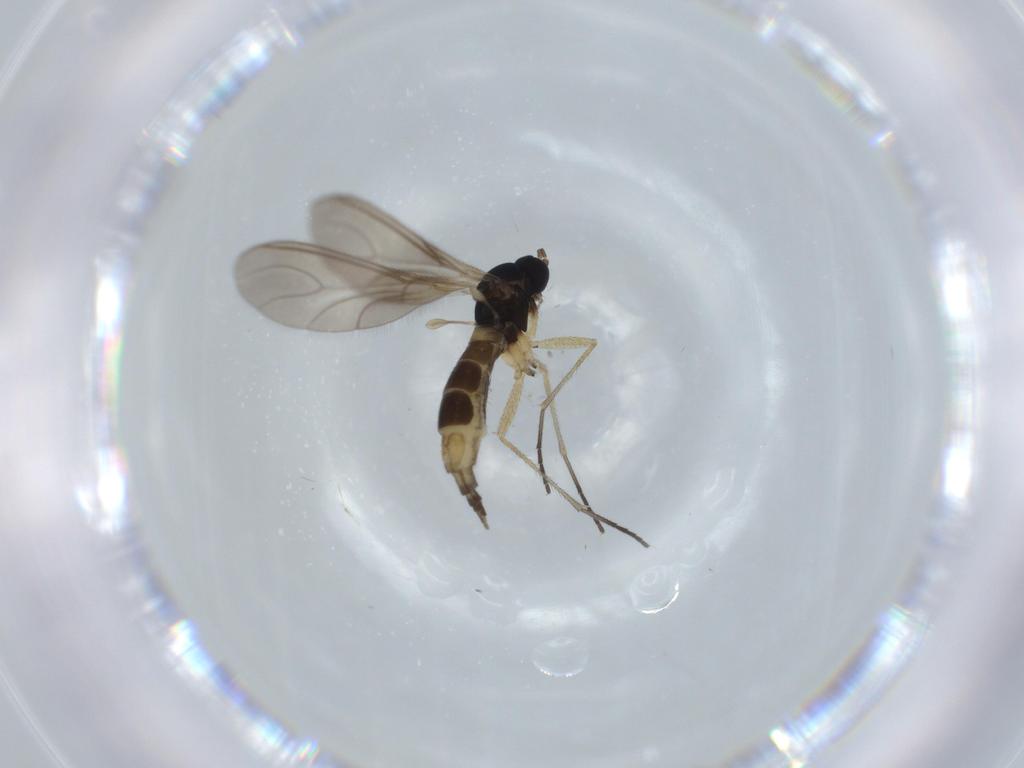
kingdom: Animalia
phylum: Arthropoda
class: Insecta
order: Diptera
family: Sciaridae
